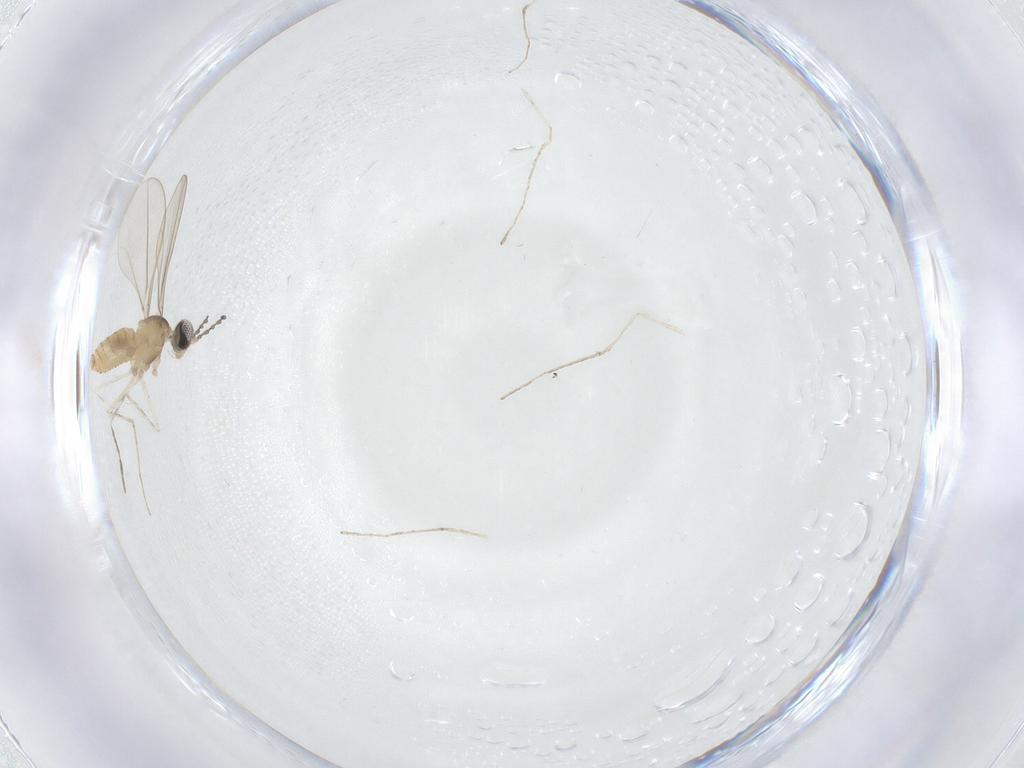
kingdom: Animalia
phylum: Arthropoda
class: Insecta
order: Diptera
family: Cecidomyiidae
